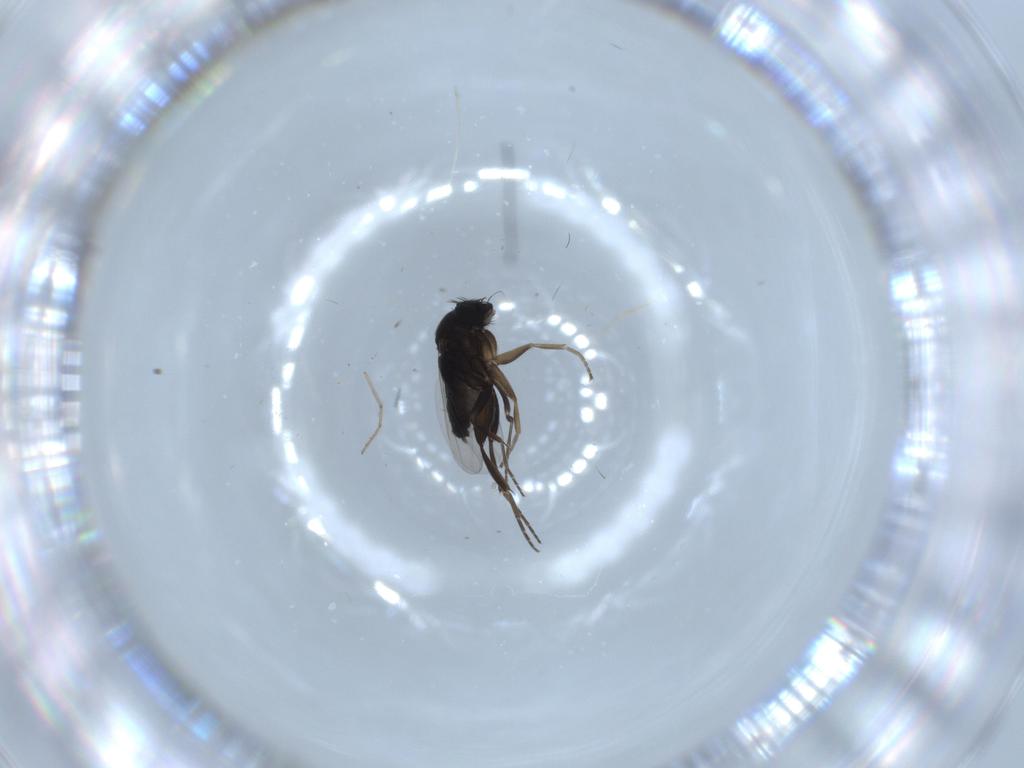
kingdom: Animalia
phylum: Arthropoda
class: Insecta
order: Diptera
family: Phoridae
